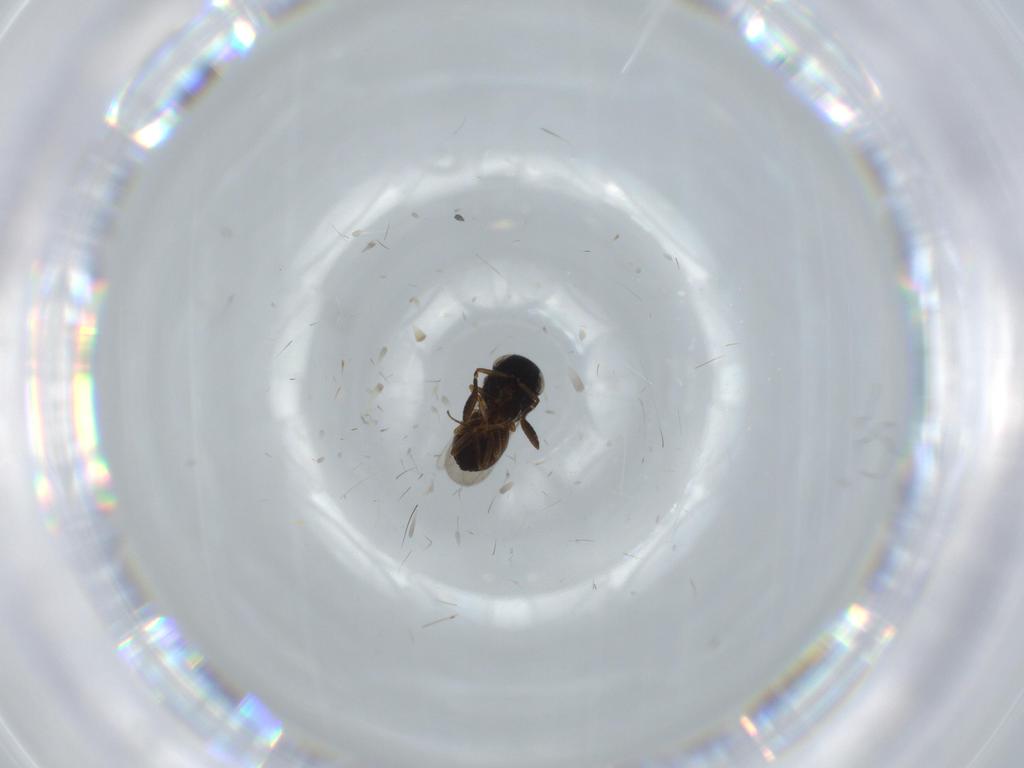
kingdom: Animalia
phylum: Arthropoda
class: Insecta
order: Coleoptera
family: Curculionidae
